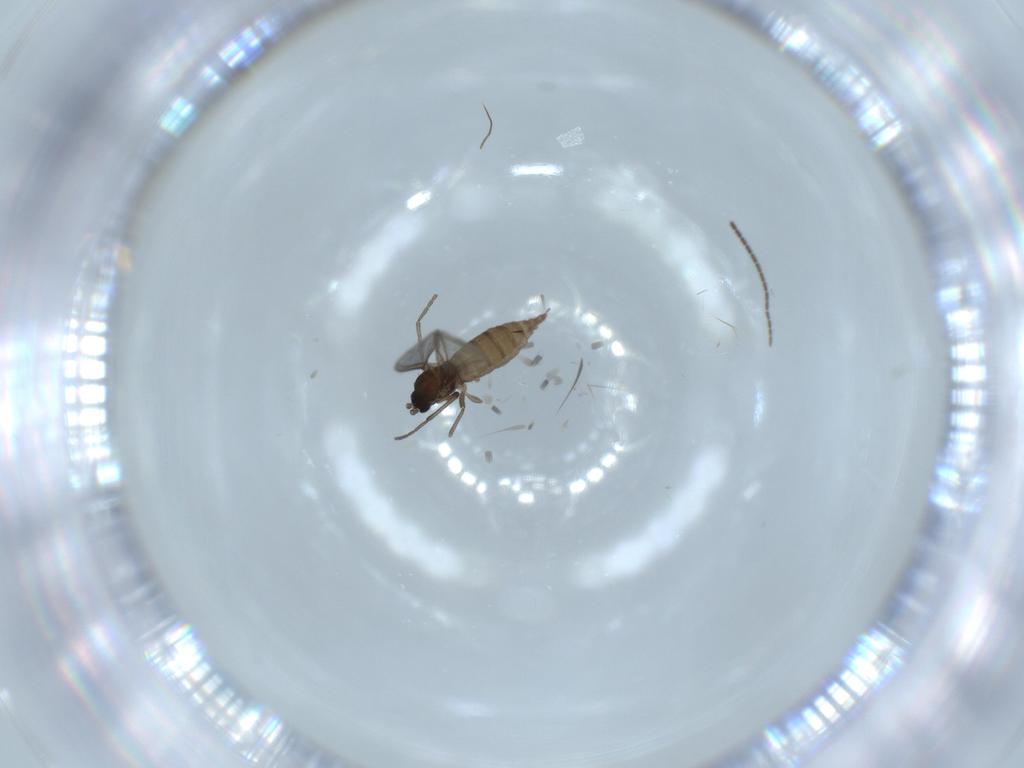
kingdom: Animalia
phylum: Arthropoda
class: Insecta
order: Diptera
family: Sciaridae
